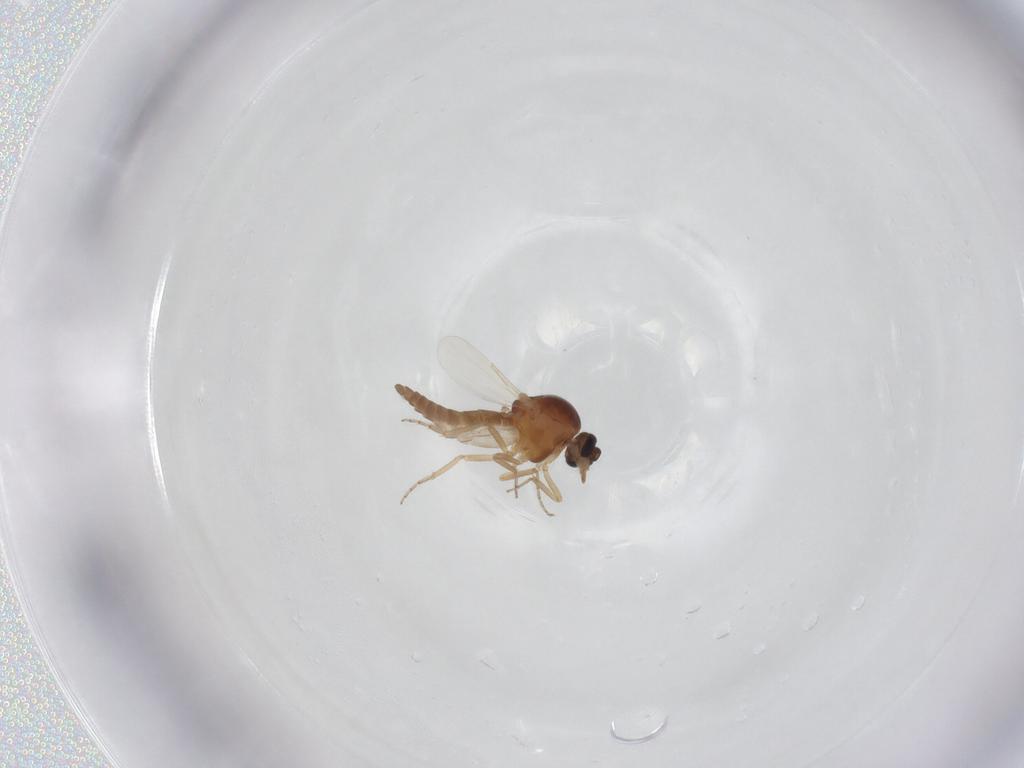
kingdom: Animalia
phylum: Arthropoda
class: Insecta
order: Diptera
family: Ceratopogonidae
